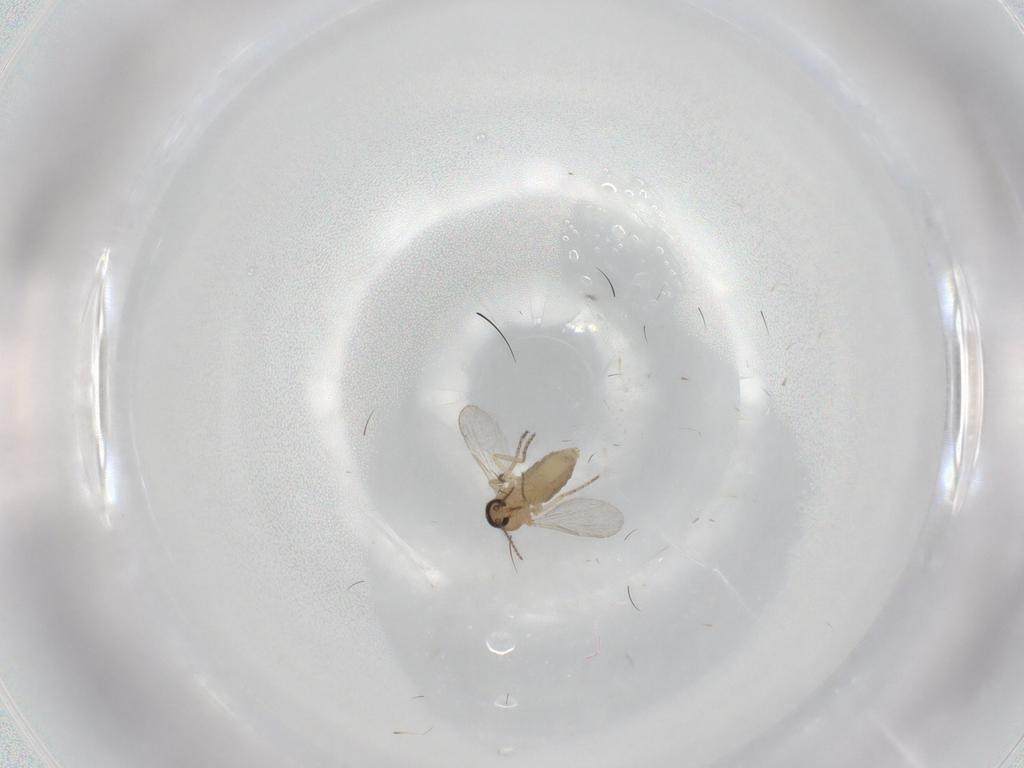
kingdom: Animalia
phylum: Arthropoda
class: Insecta
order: Diptera
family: Ceratopogonidae
